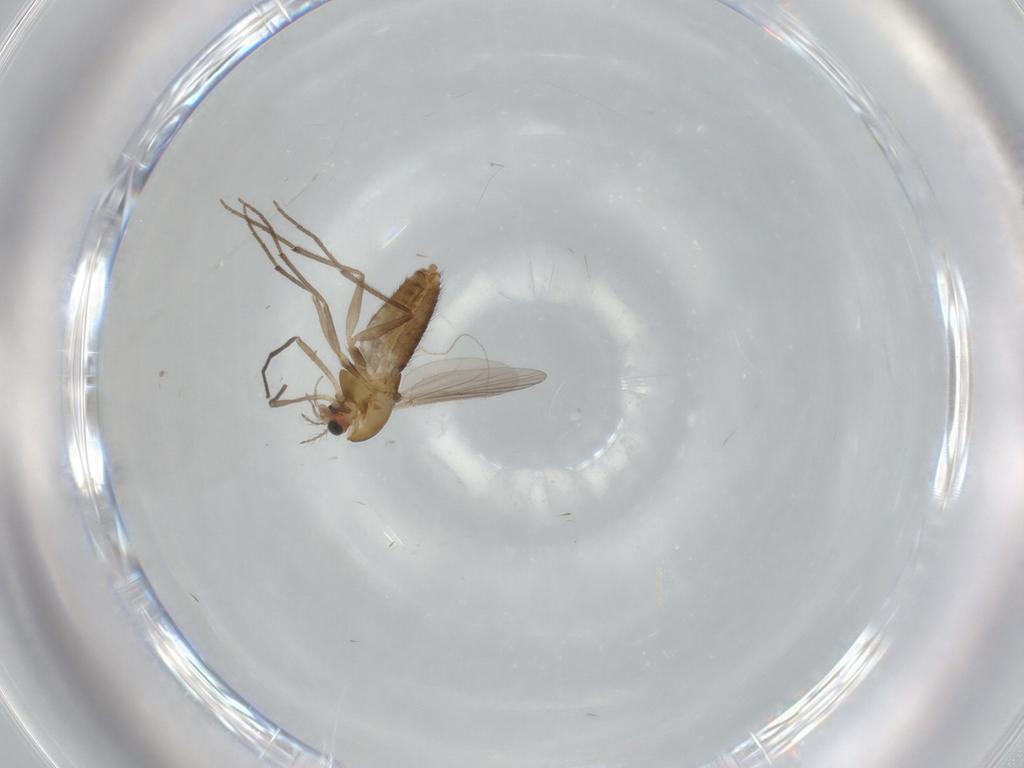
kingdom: Animalia
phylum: Arthropoda
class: Insecta
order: Diptera
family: Chironomidae
